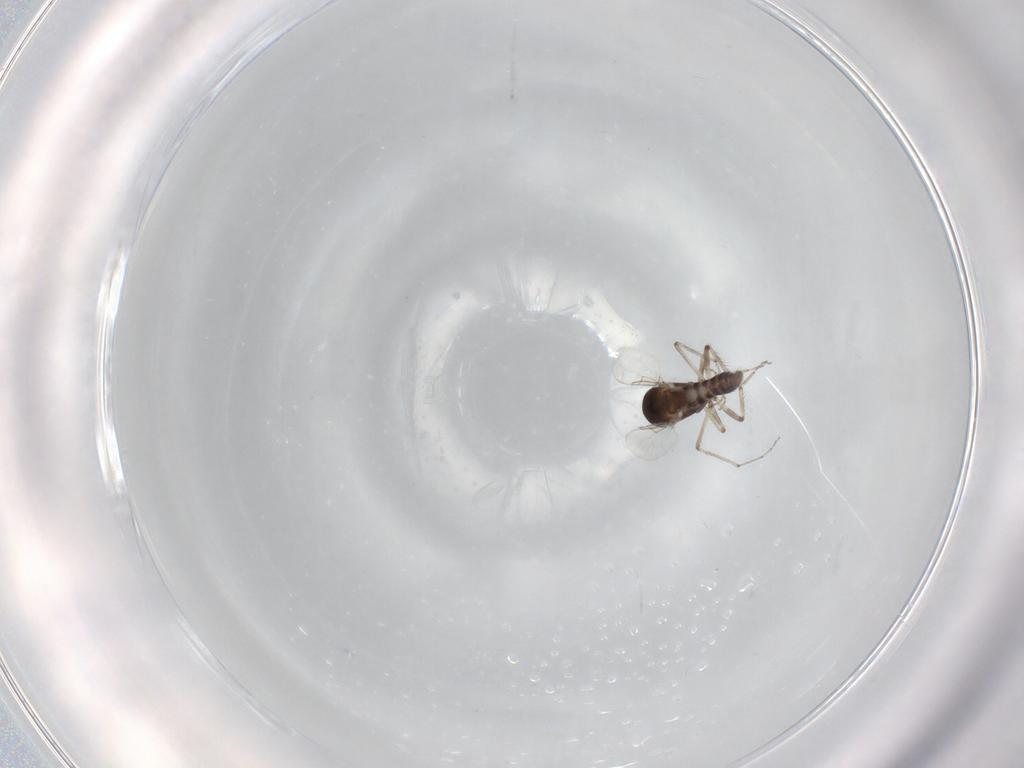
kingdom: Animalia
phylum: Arthropoda
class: Insecta
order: Diptera
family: Ceratopogonidae
